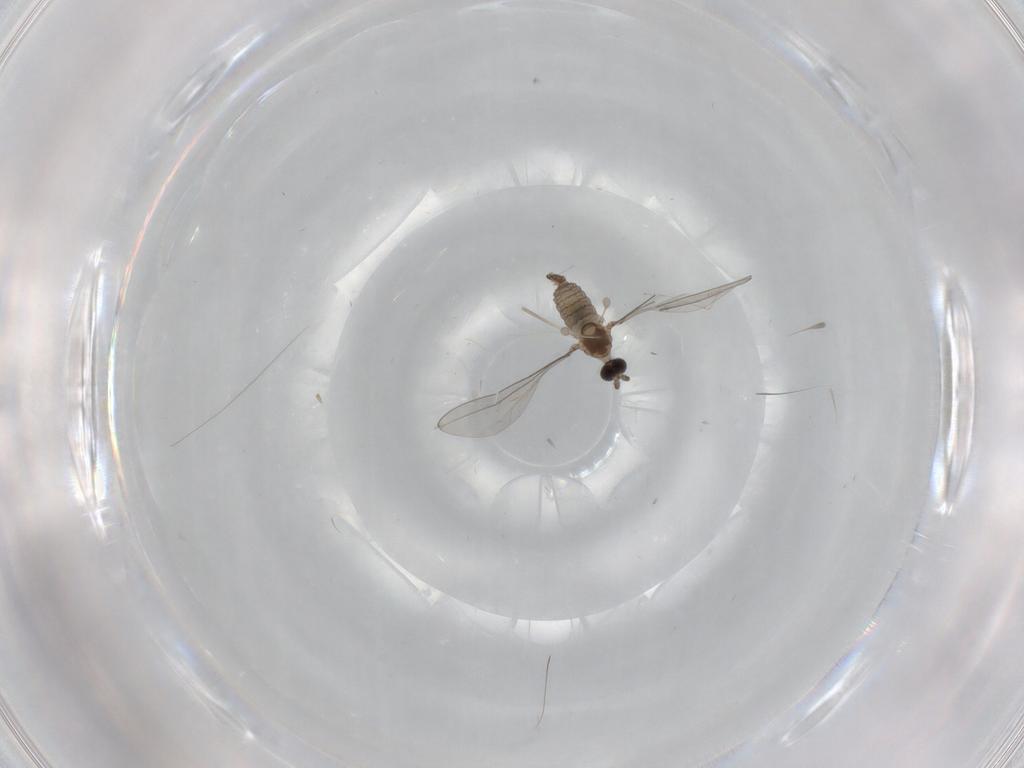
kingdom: Animalia
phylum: Arthropoda
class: Insecta
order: Diptera
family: Cecidomyiidae
